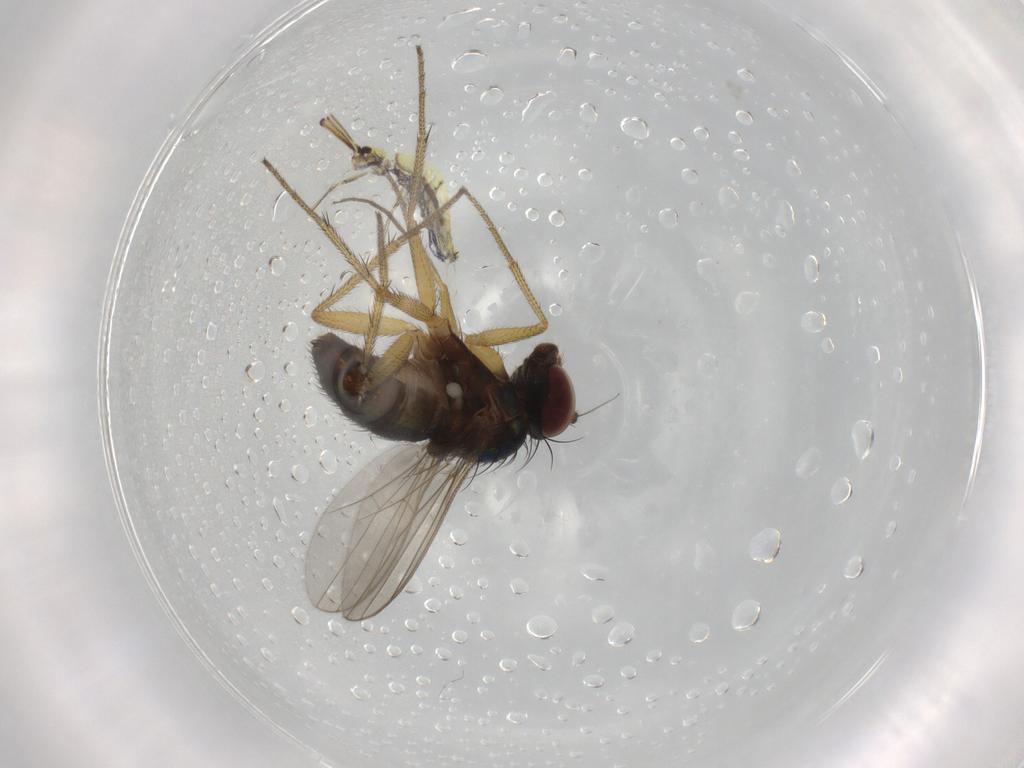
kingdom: Animalia
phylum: Arthropoda
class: Insecta
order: Diptera
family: Chironomidae
